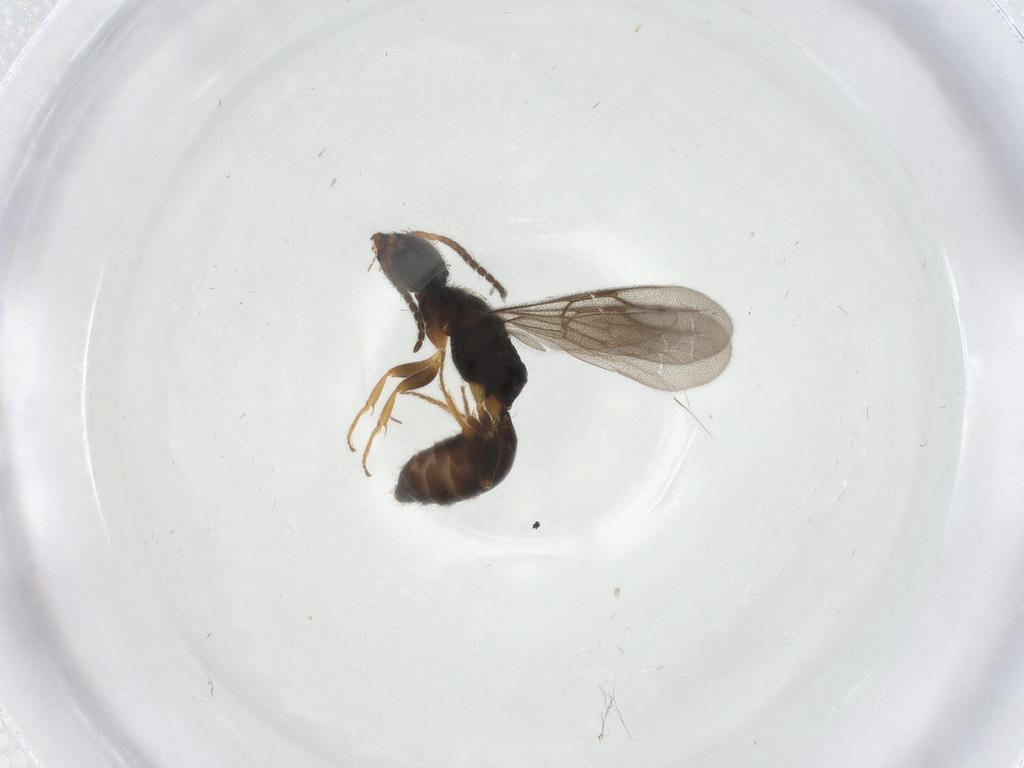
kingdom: Animalia
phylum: Arthropoda
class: Insecta
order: Hymenoptera
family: Bethylidae
